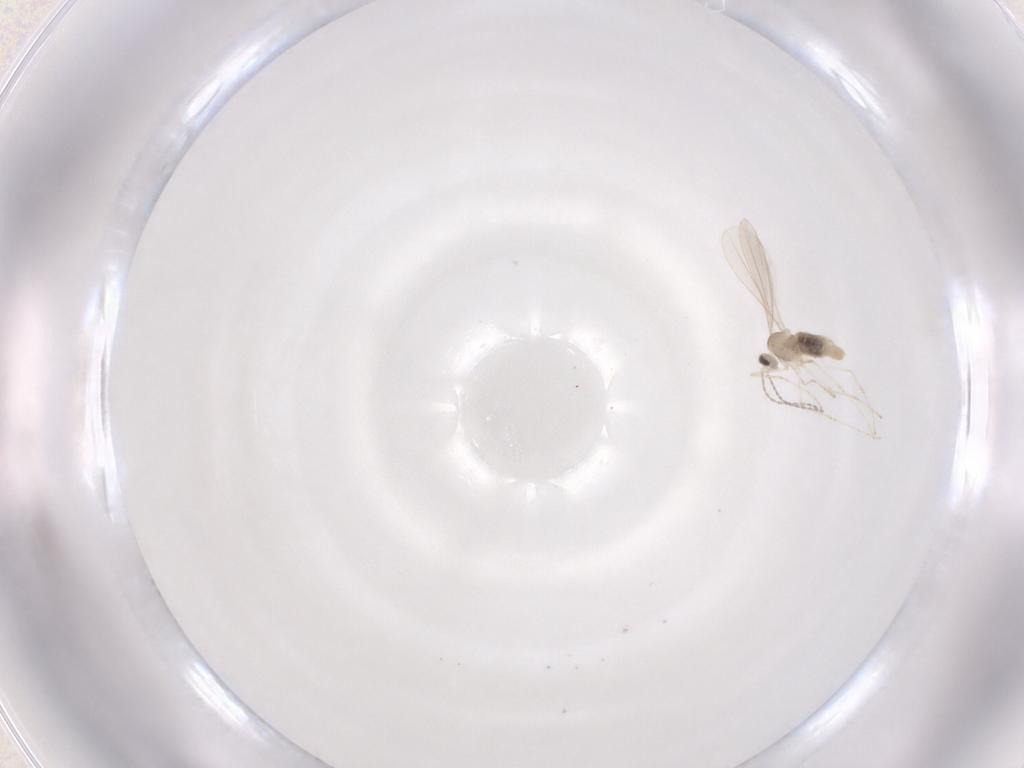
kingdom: Animalia
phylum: Arthropoda
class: Insecta
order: Diptera
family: Cecidomyiidae
